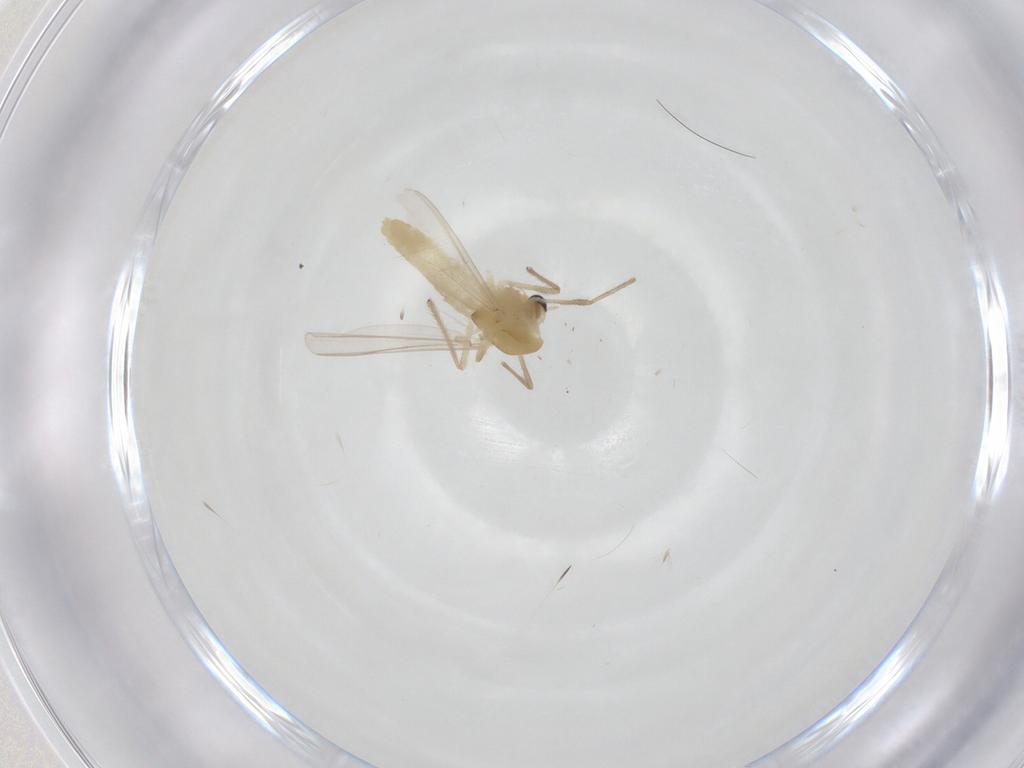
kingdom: Animalia
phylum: Arthropoda
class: Insecta
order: Diptera
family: Chironomidae
